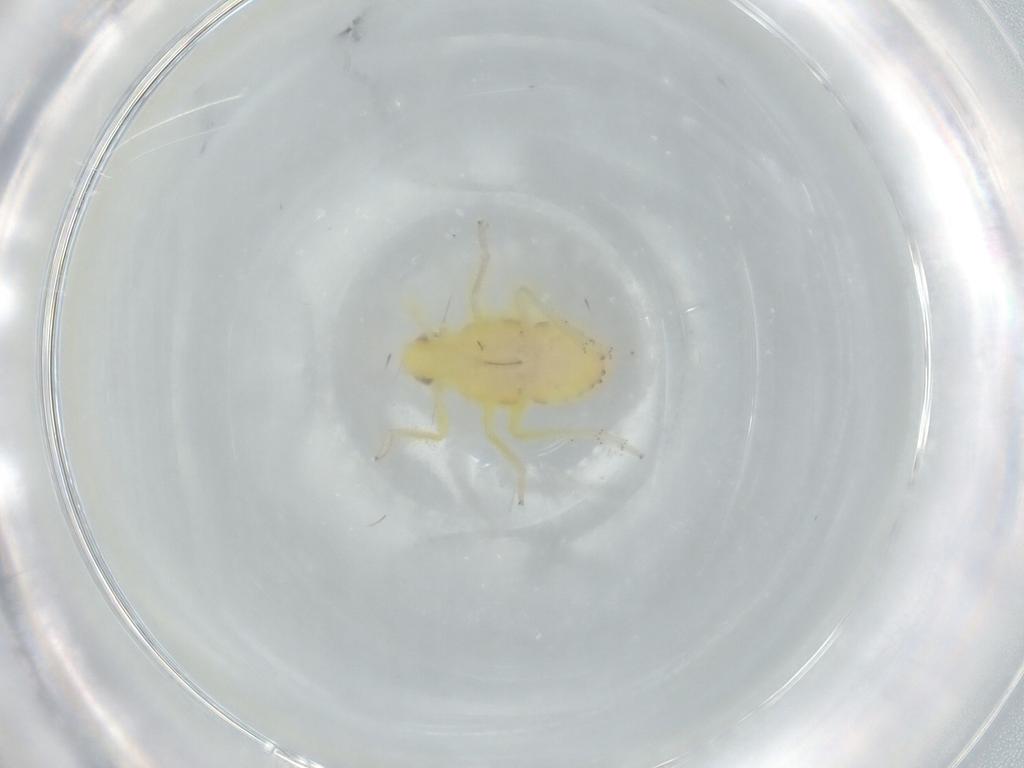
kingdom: Animalia
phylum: Arthropoda
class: Insecta
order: Hemiptera
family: Tropiduchidae
